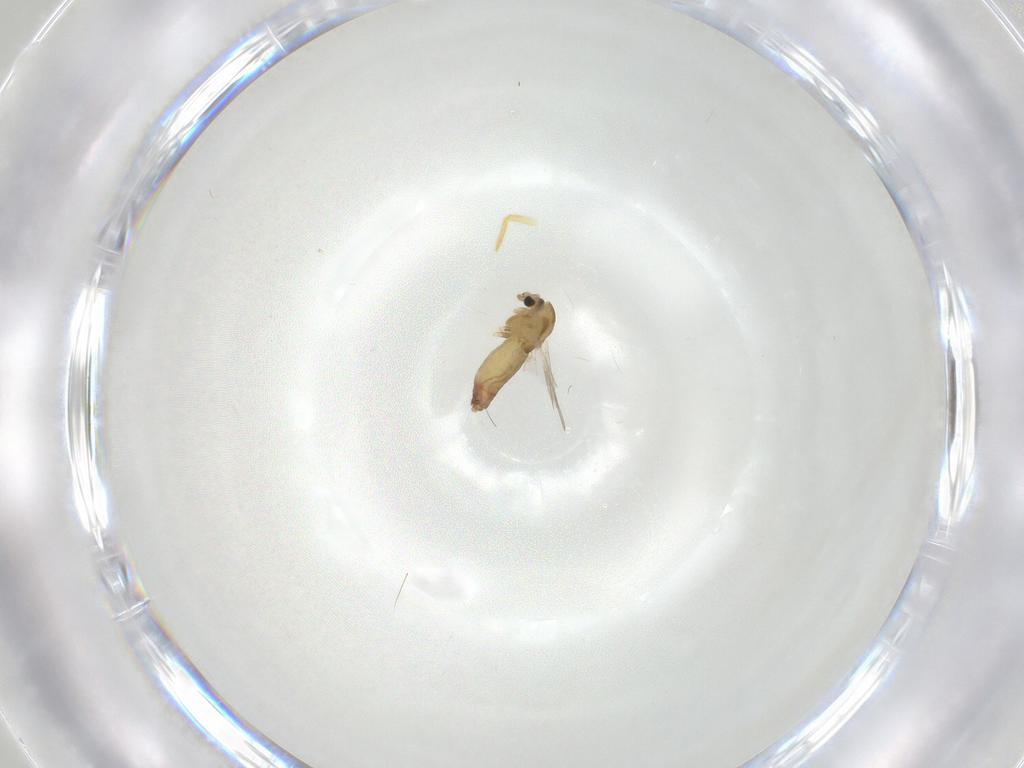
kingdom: Animalia
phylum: Arthropoda
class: Insecta
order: Diptera
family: Chironomidae
